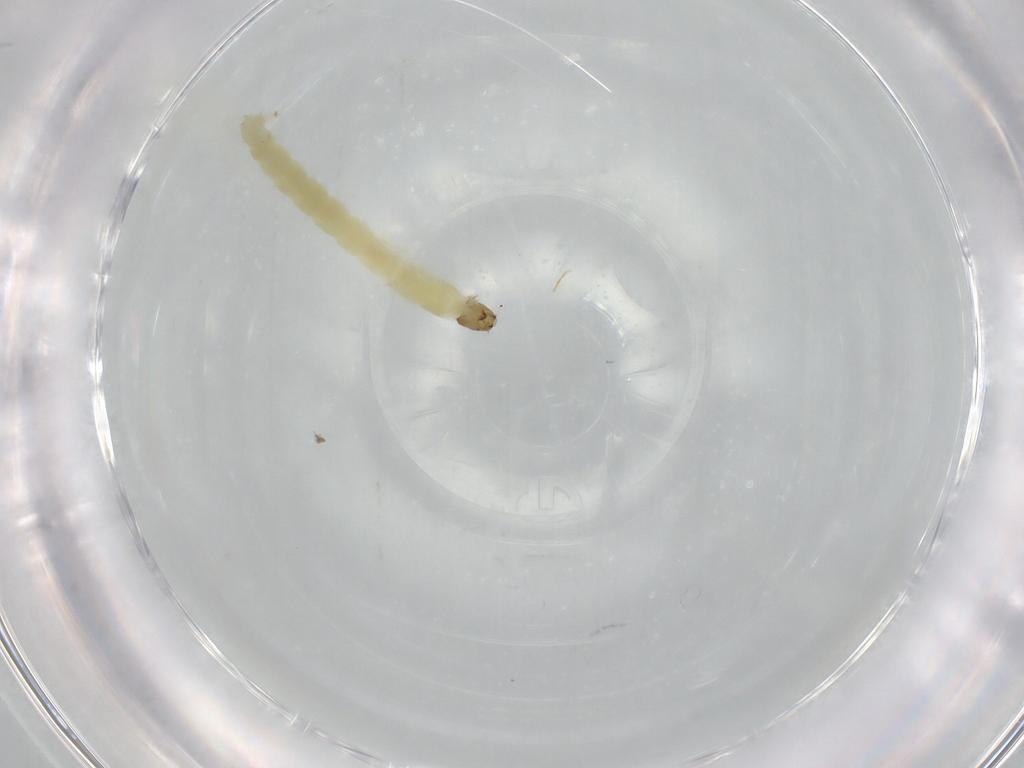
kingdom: Animalia
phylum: Arthropoda
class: Insecta
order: Diptera
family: Chironomidae
